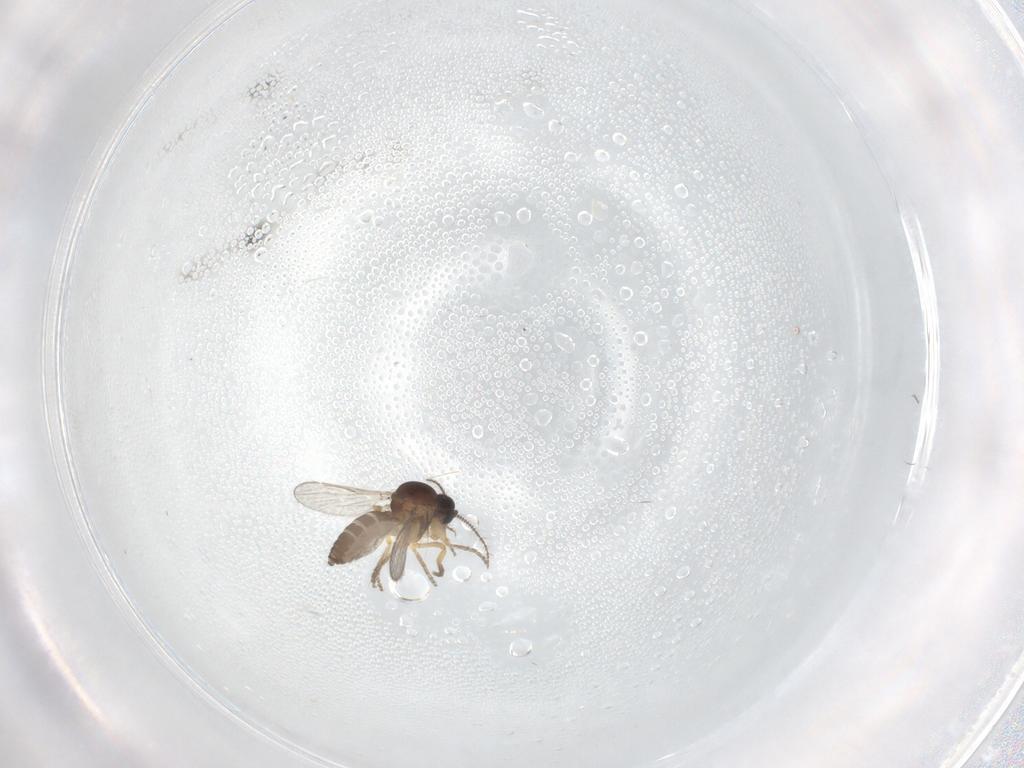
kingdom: Animalia
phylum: Arthropoda
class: Insecta
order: Diptera
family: Ceratopogonidae
